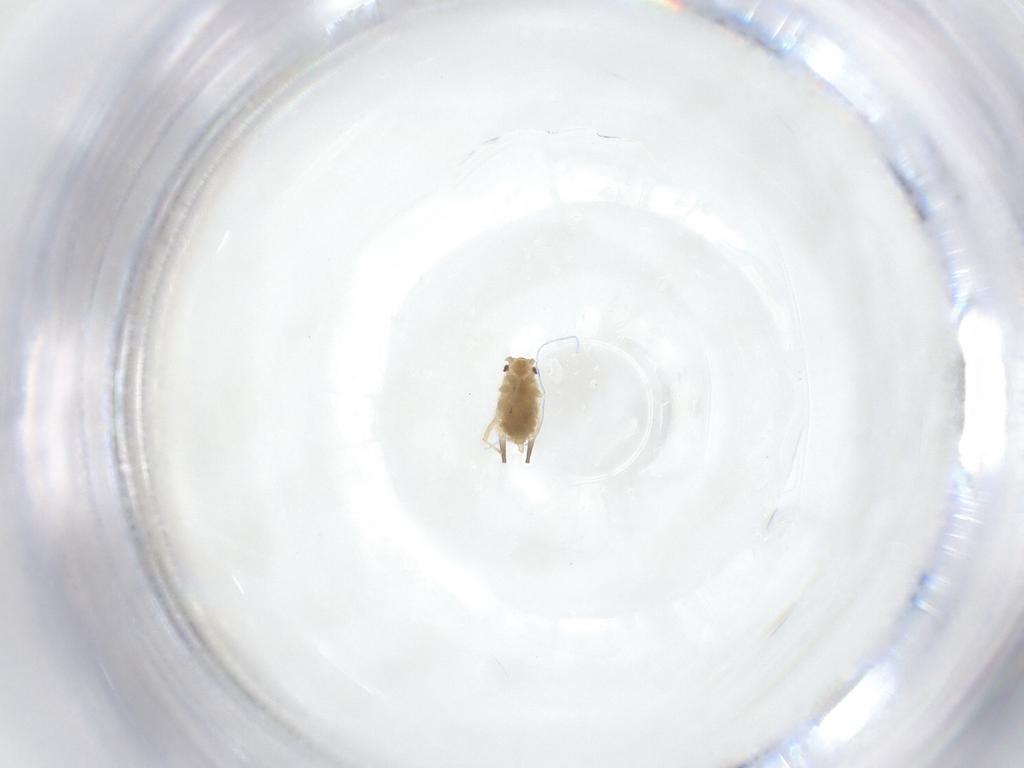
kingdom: Animalia
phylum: Arthropoda
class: Insecta
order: Hemiptera
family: Aphididae
